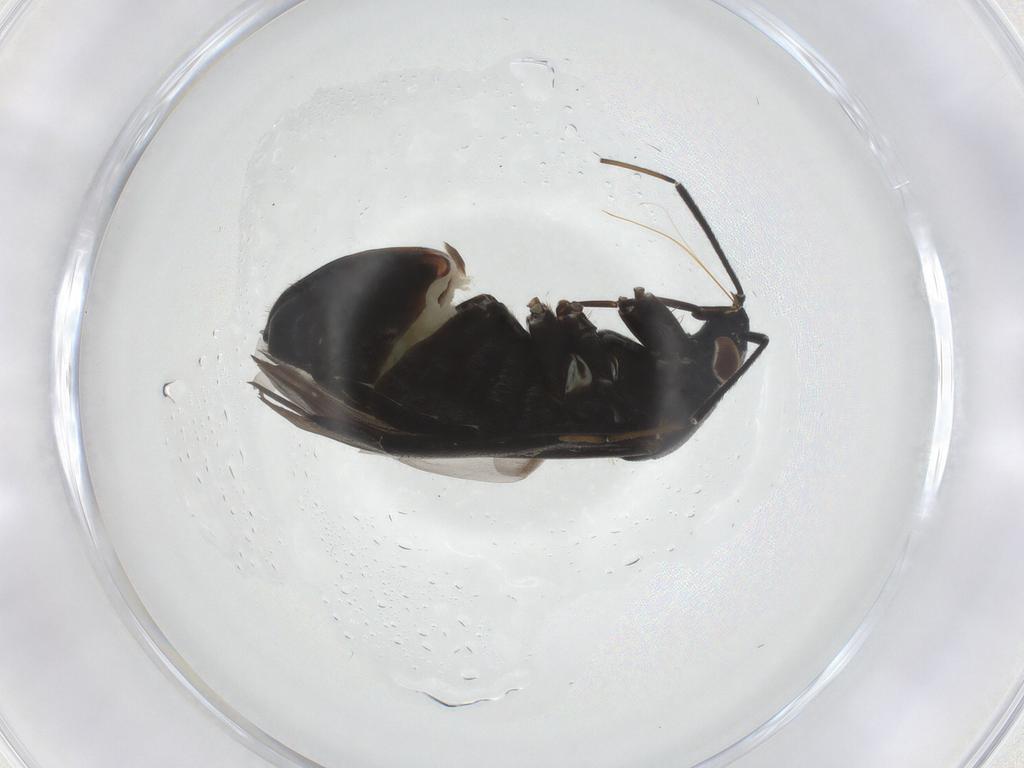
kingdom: Animalia
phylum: Arthropoda
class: Insecta
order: Hemiptera
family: Miridae
